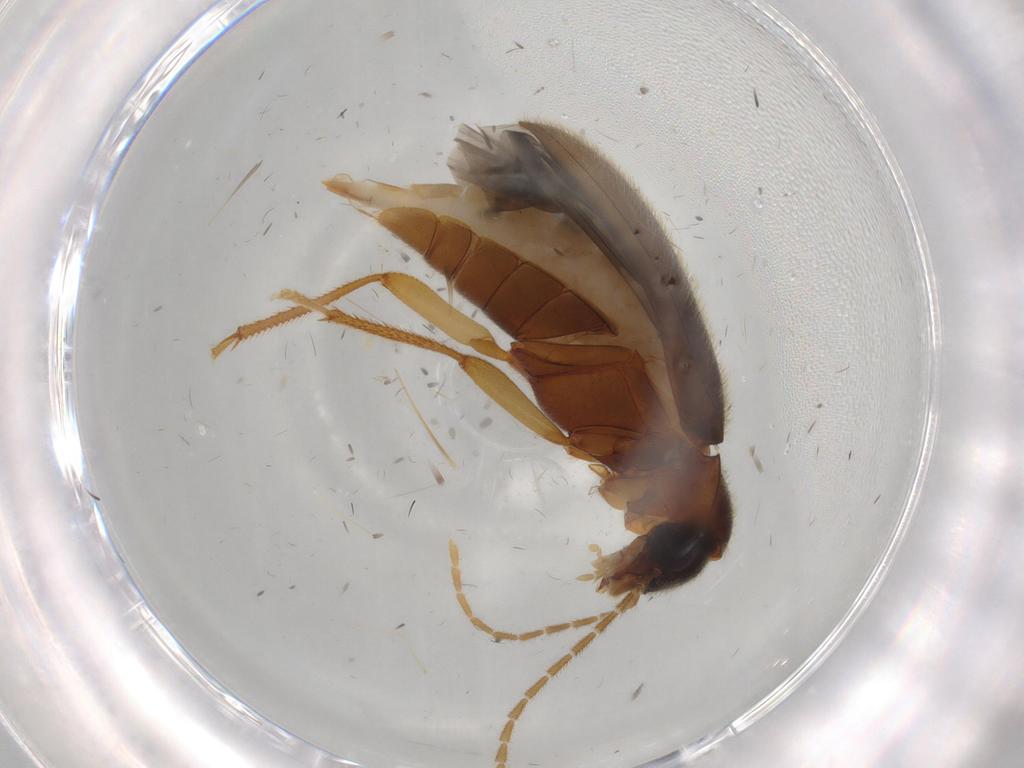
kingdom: Animalia
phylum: Arthropoda
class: Insecta
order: Coleoptera
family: Ptilodactylidae
